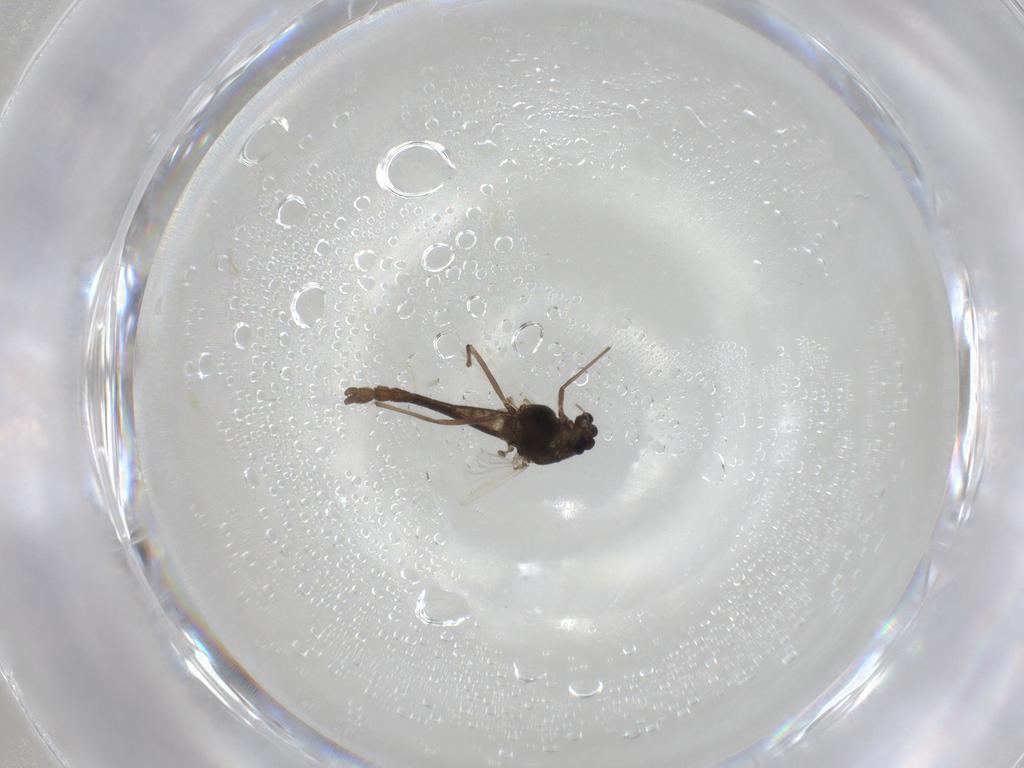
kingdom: Animalia
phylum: Arthropoda
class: Insecta
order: Diptera
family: Chironomidae
